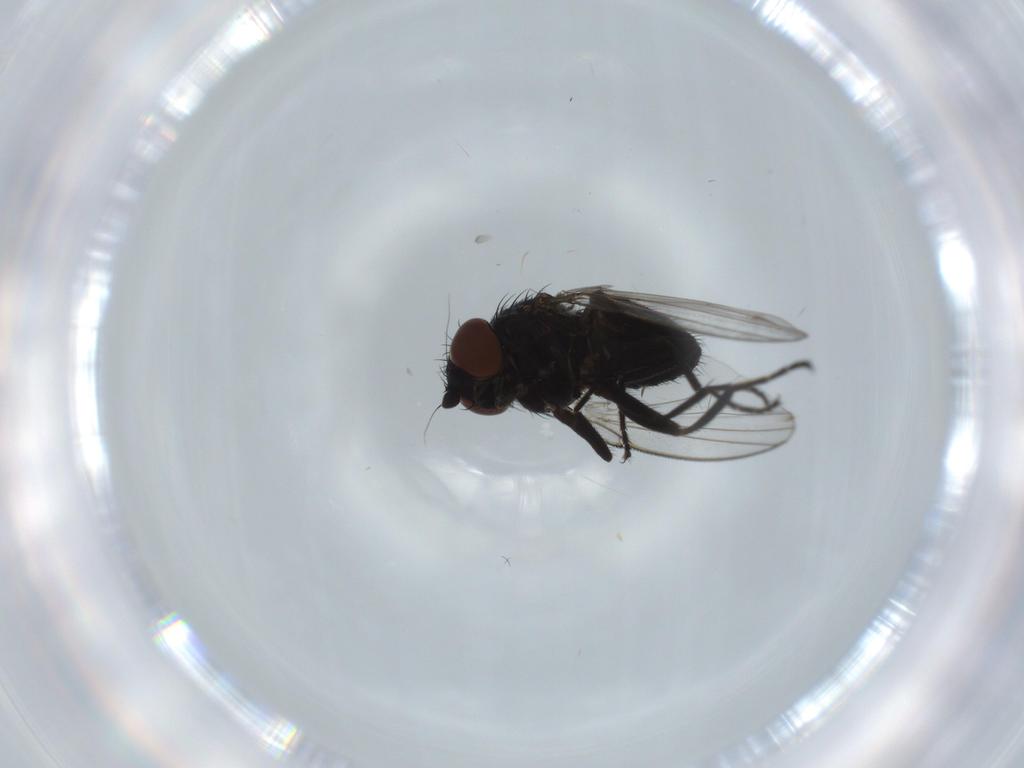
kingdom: Animalia
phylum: Arthropoda
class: Insecta
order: Diptera
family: Milichiidae
